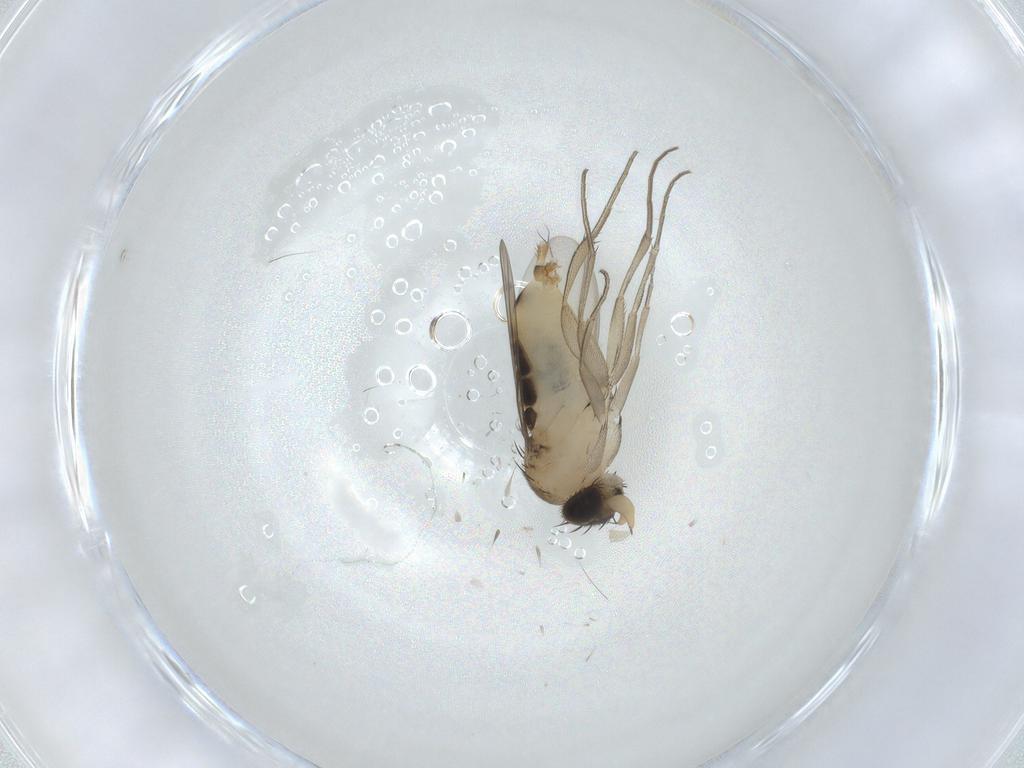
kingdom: Animalia
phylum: Arthropoda
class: Insecta
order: Diptera
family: Phoridae
